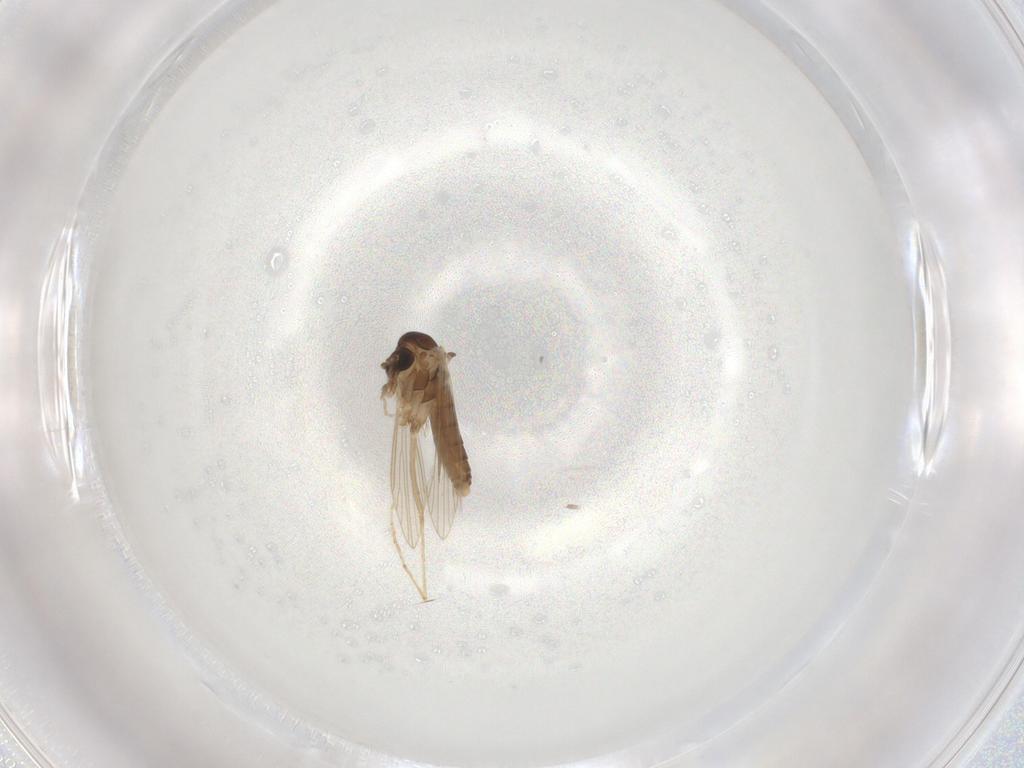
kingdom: Animalia
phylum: Arthropoda
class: Insecta
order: Diptera
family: Psychodidae
